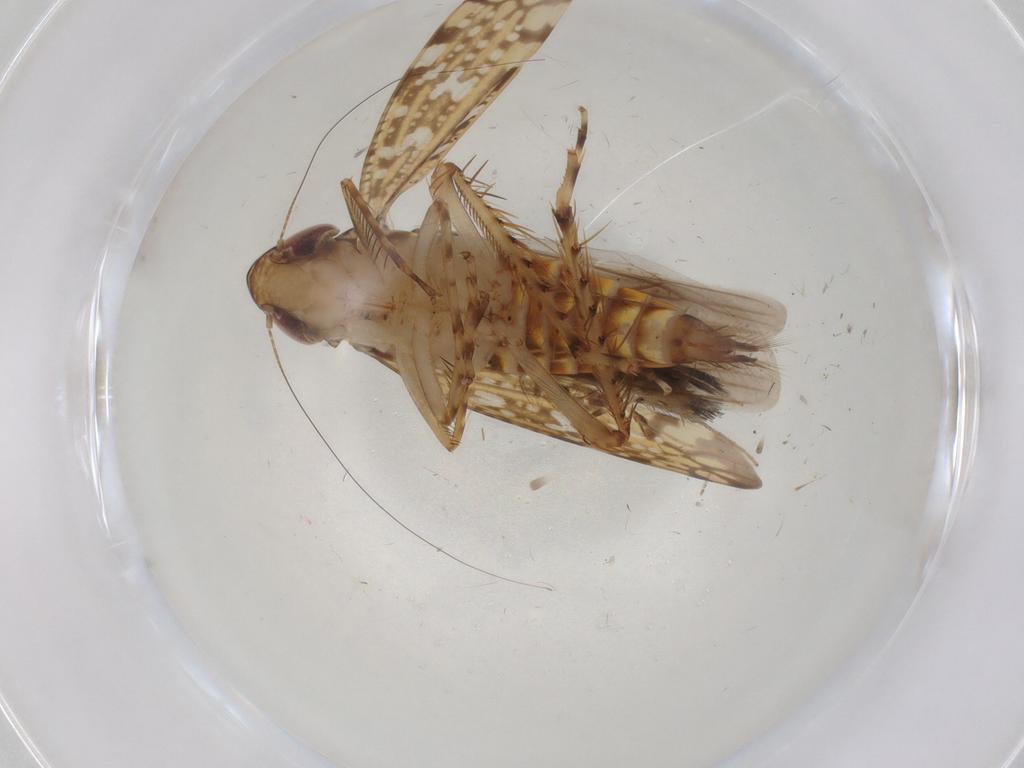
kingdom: Animalia
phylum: Arthropoda
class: Insecta
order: Hemiptera
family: Cicadellidae
